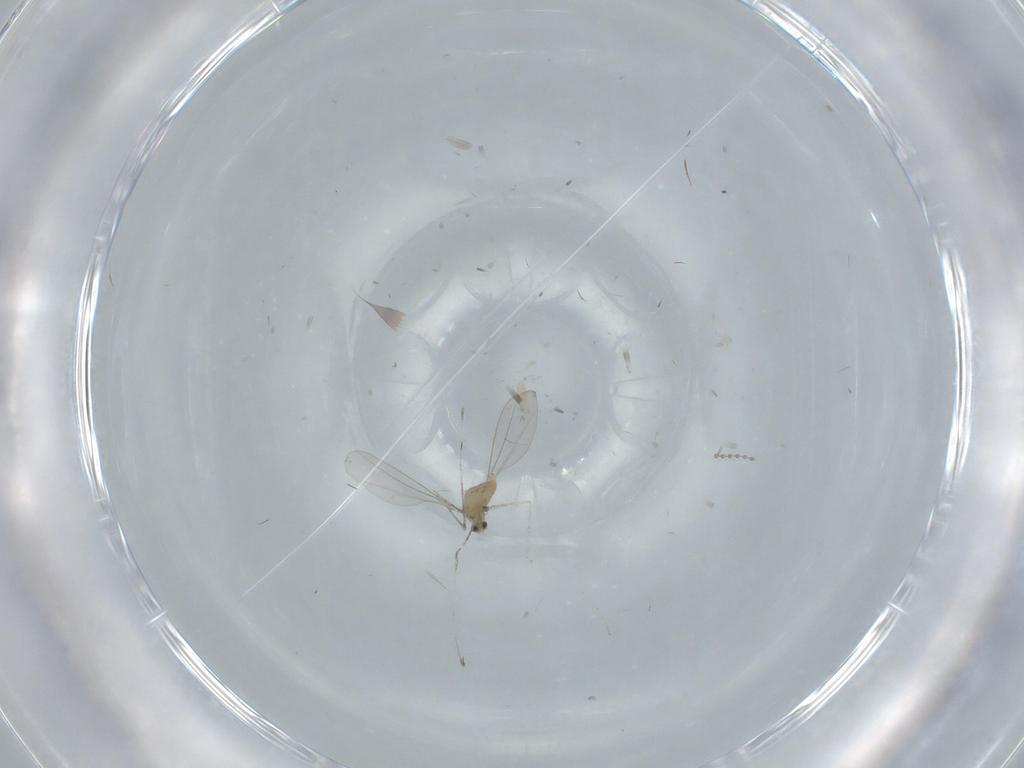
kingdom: Animalia
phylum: Arthropoda
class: Insecta
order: Diptera
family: Cecidomyiidae
